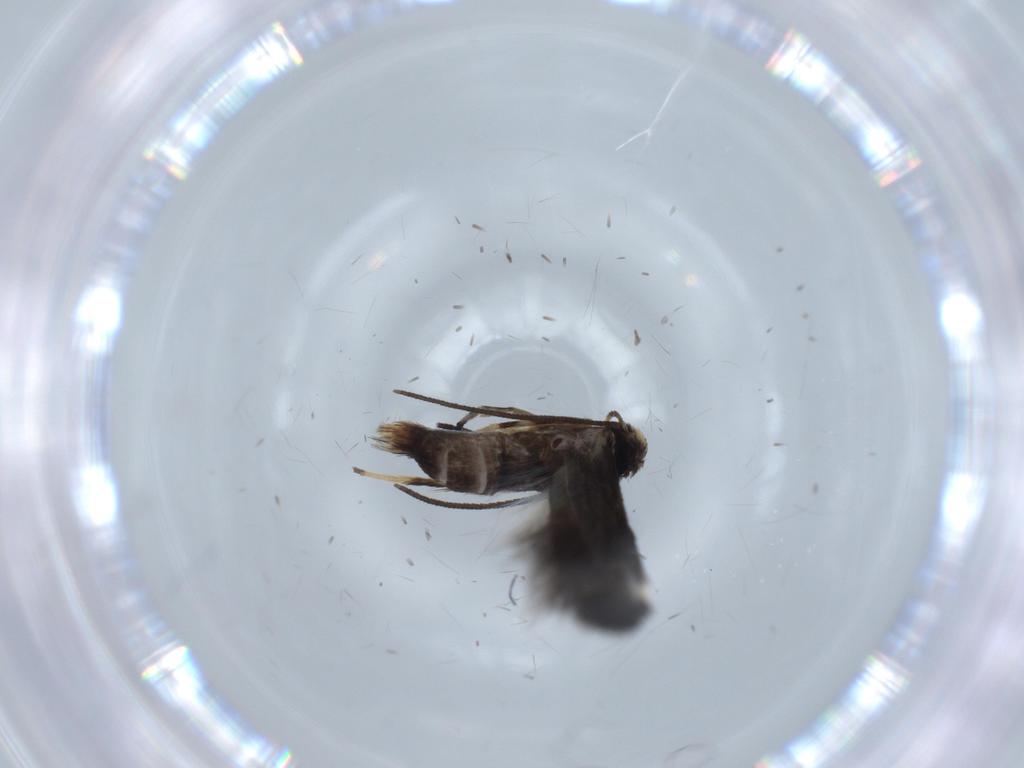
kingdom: Animalia
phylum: Arthropoda
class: Insecta
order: Lepidoptera
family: Gelechiidae
